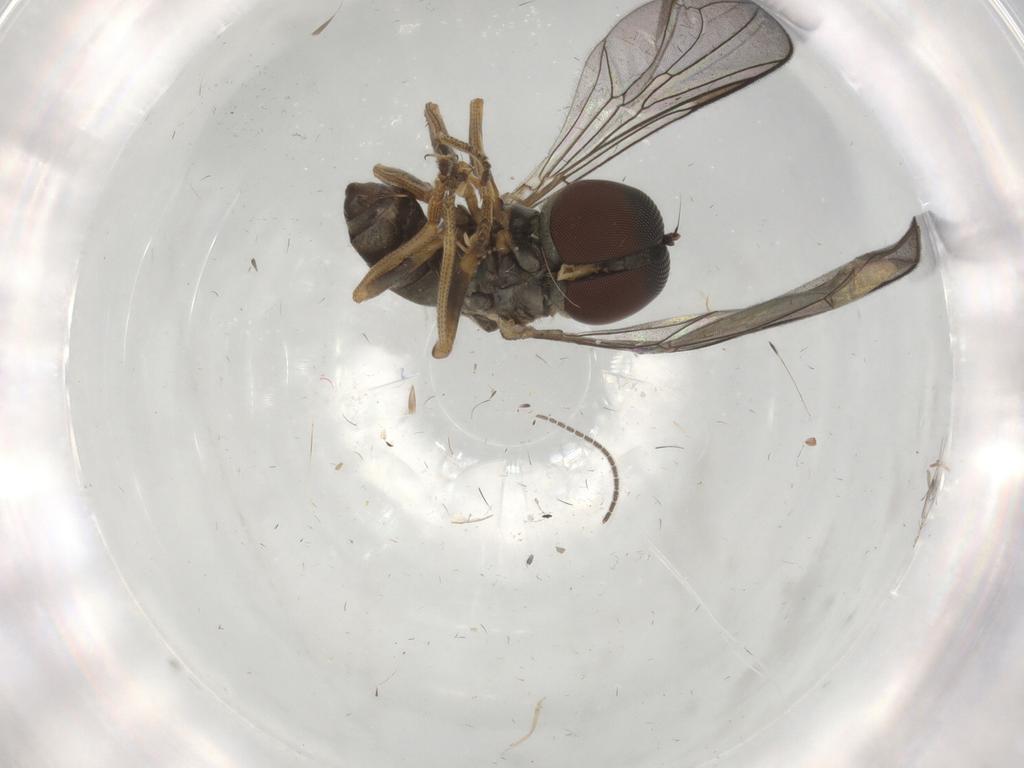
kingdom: Animalia
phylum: Arthropoda
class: Insecta
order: Diptera
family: Pipunculidae
